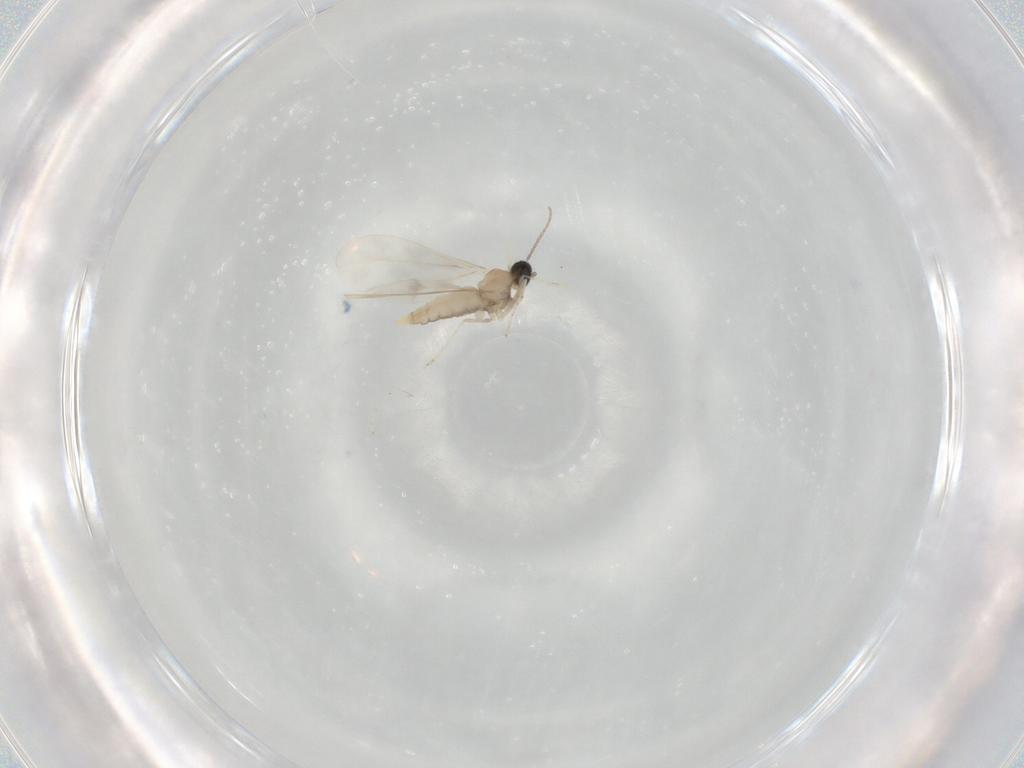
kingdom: Animalia
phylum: Arthropoda
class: Insecta
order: Diptera
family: Cecidomyiidae
